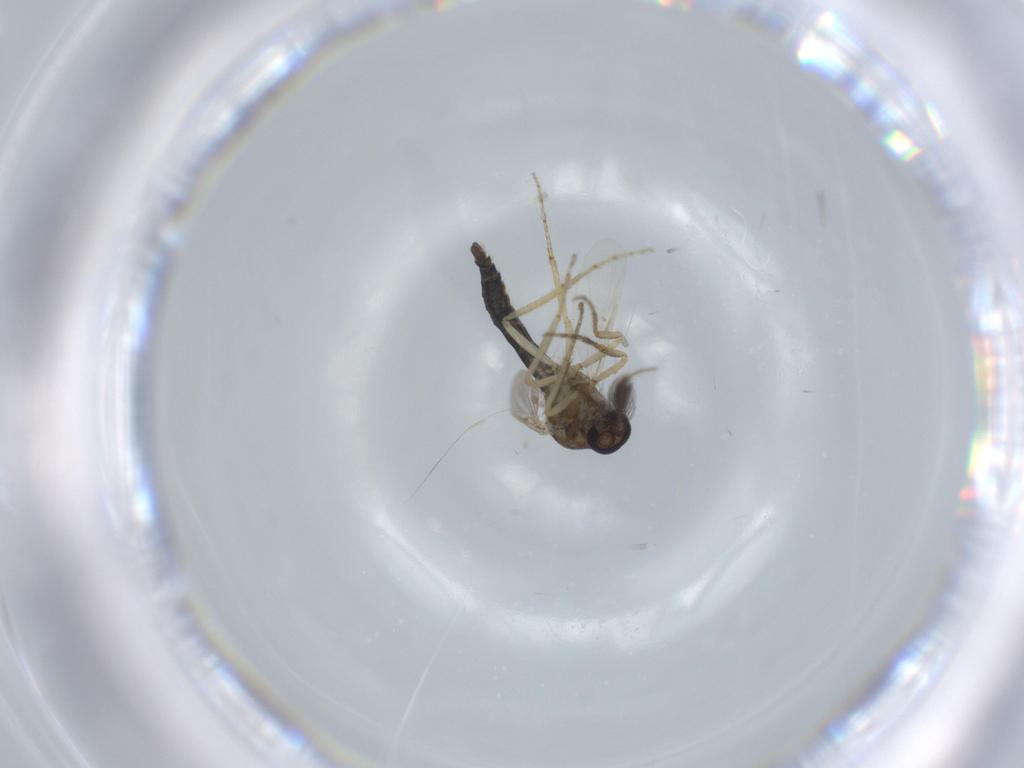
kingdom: Animalia
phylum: Arthropoda
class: Insecta
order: Diptera
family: Ceratopogonidae
